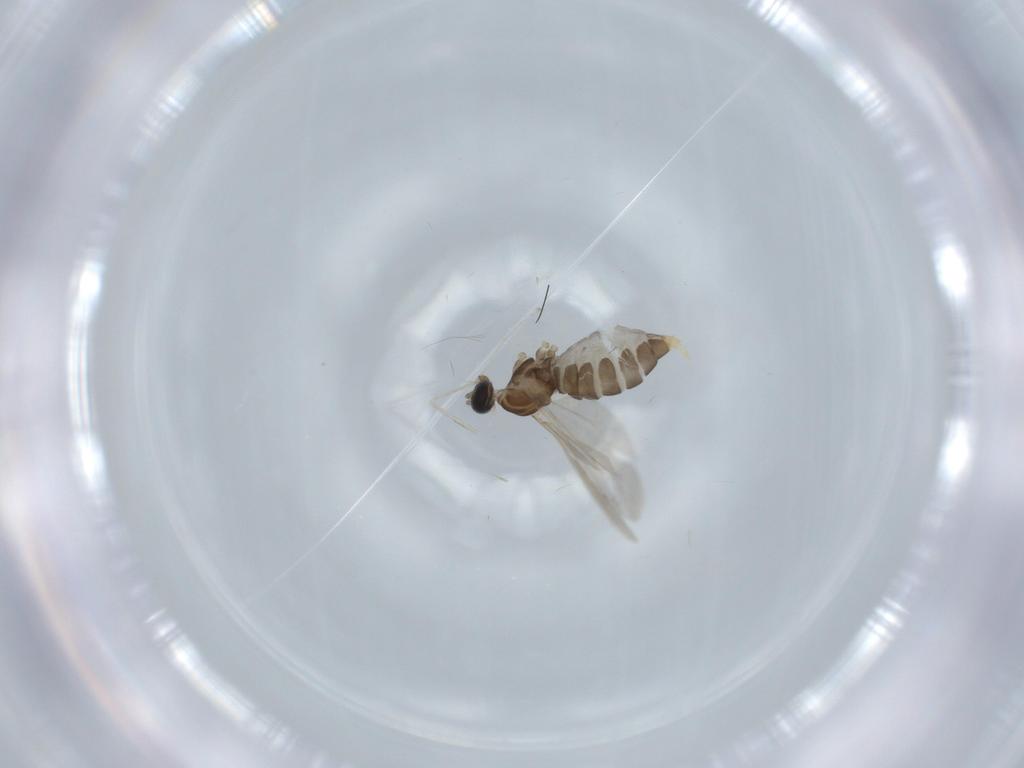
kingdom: Animalia
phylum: Arthropoda
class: Insecta
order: Diptera
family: Cecidomyiidae
